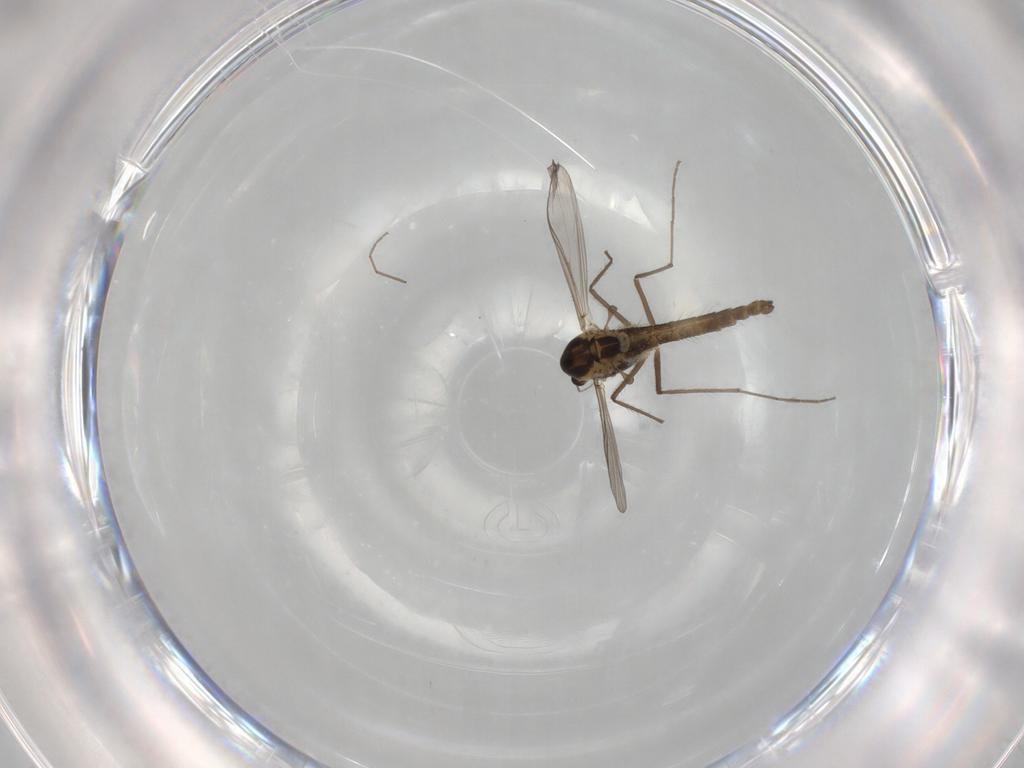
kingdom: Animalia
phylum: Arthropoda
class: Insecta
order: Diptera
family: Chironomidae
